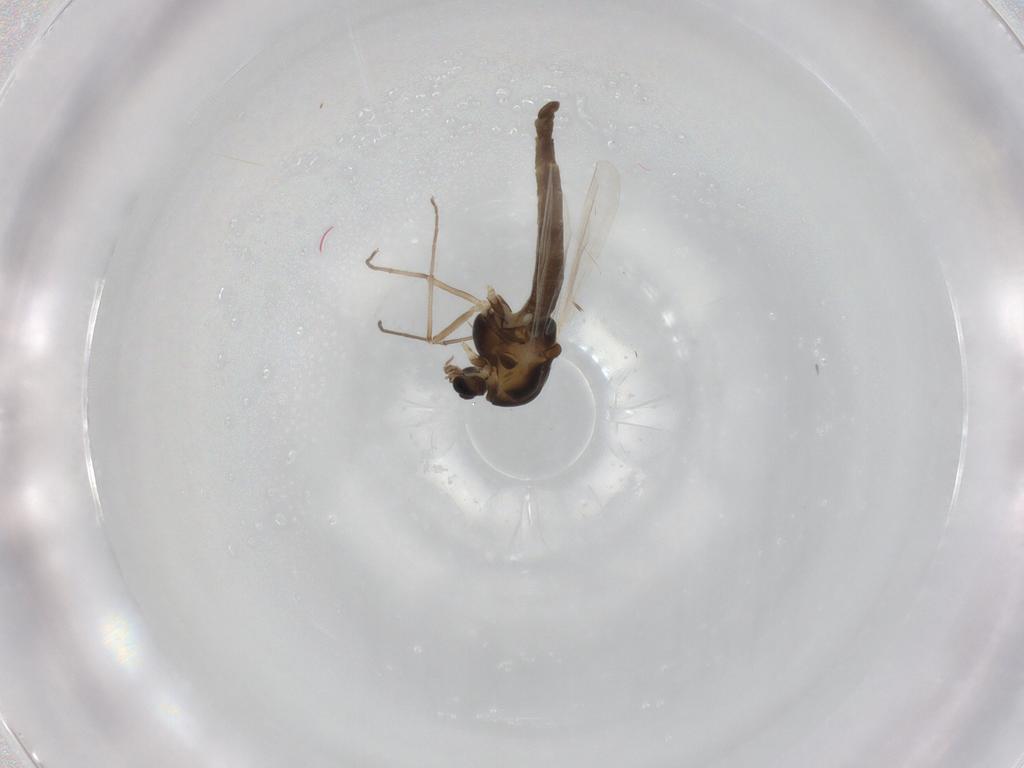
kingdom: Animalia
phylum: Arthropoda
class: Insecta
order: Diptera
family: Chironomidae
